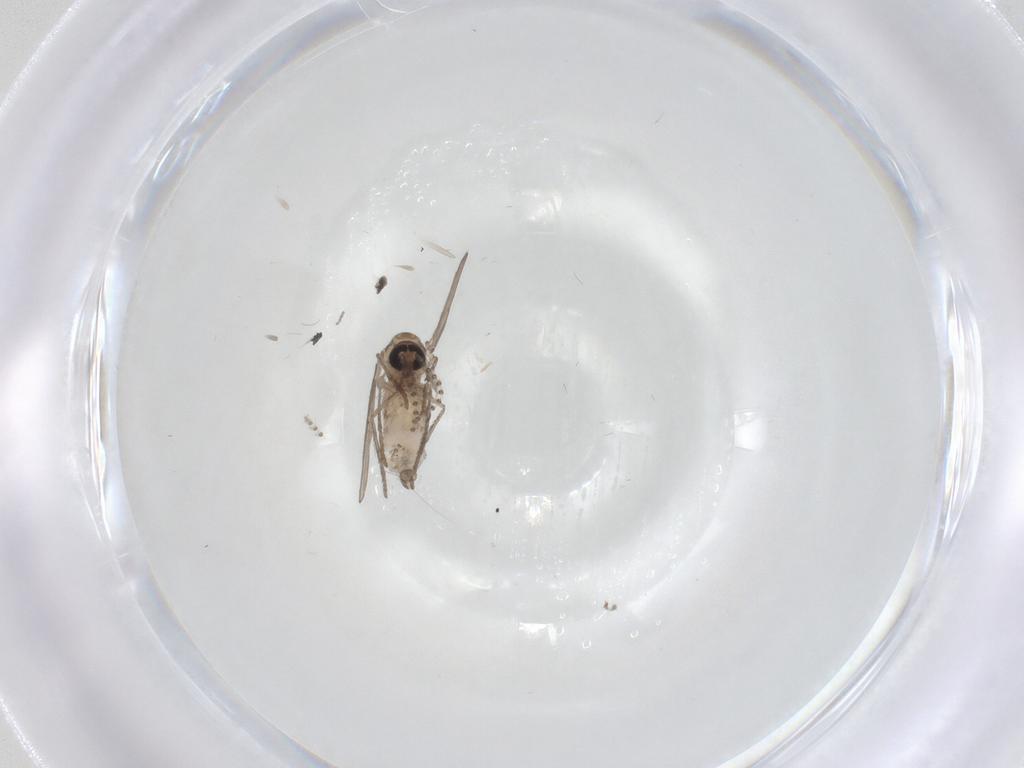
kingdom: Animalia
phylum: Arthropoda
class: Insecta
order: Diptera
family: Psychodidae
